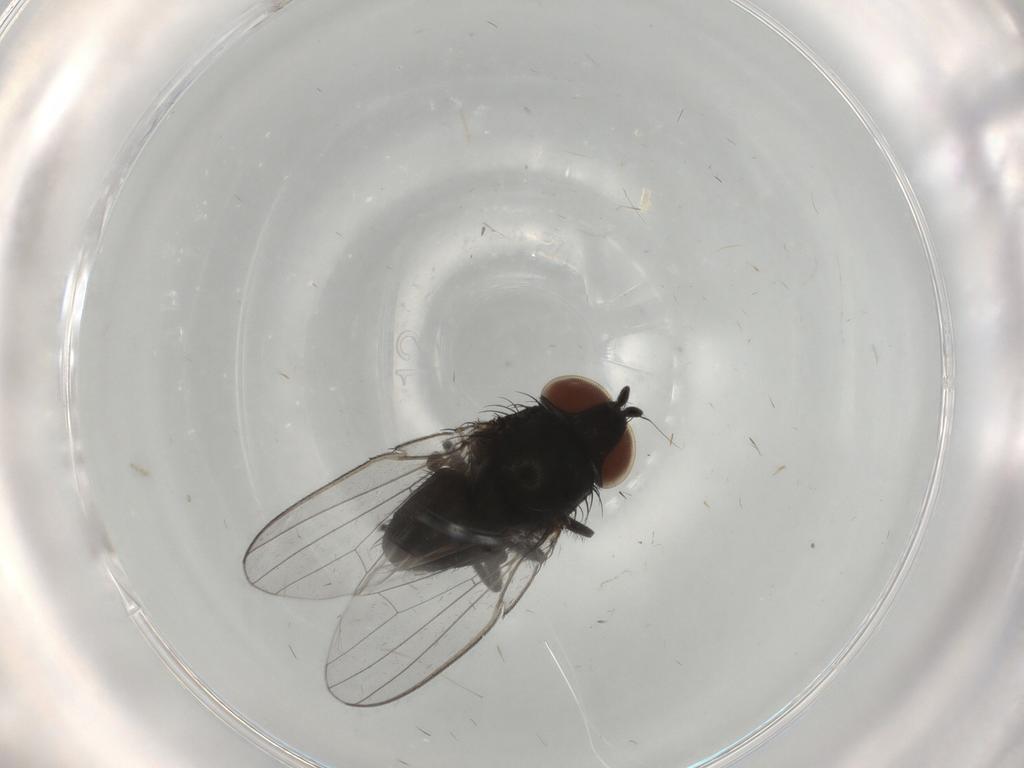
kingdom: Animalia
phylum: Arthropoda
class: Insecta
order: Diptera
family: Milichiidae
